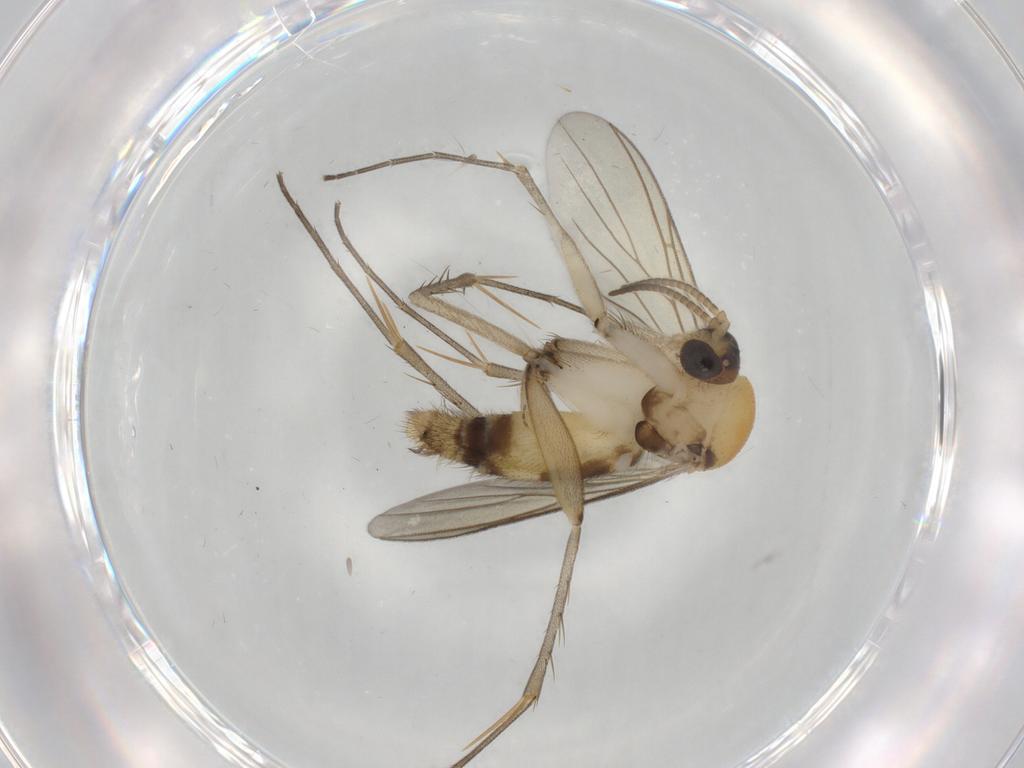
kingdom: Animalia
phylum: Arthropoda
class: Insecta
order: Diptera
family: Mycetophilidae
